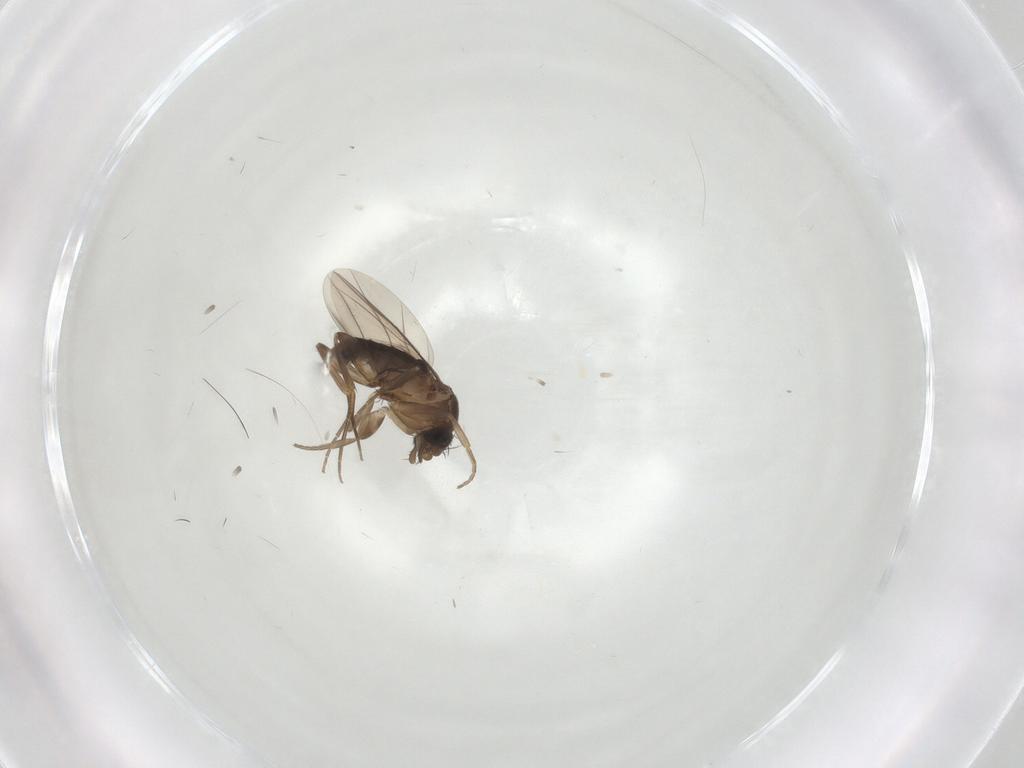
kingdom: Animalia
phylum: Arthropoda
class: Insecta
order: Diptera
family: Phoridae
